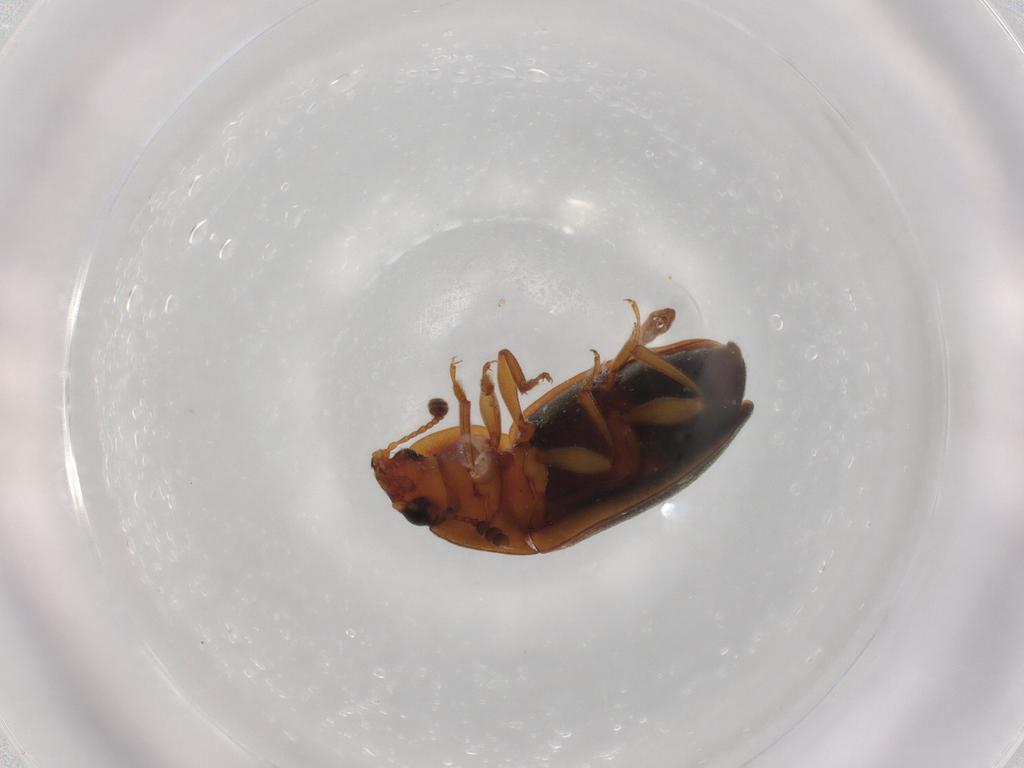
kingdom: Animalia
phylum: Arthropoda
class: Insecta
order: Coleoptera
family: Nitidulidae
